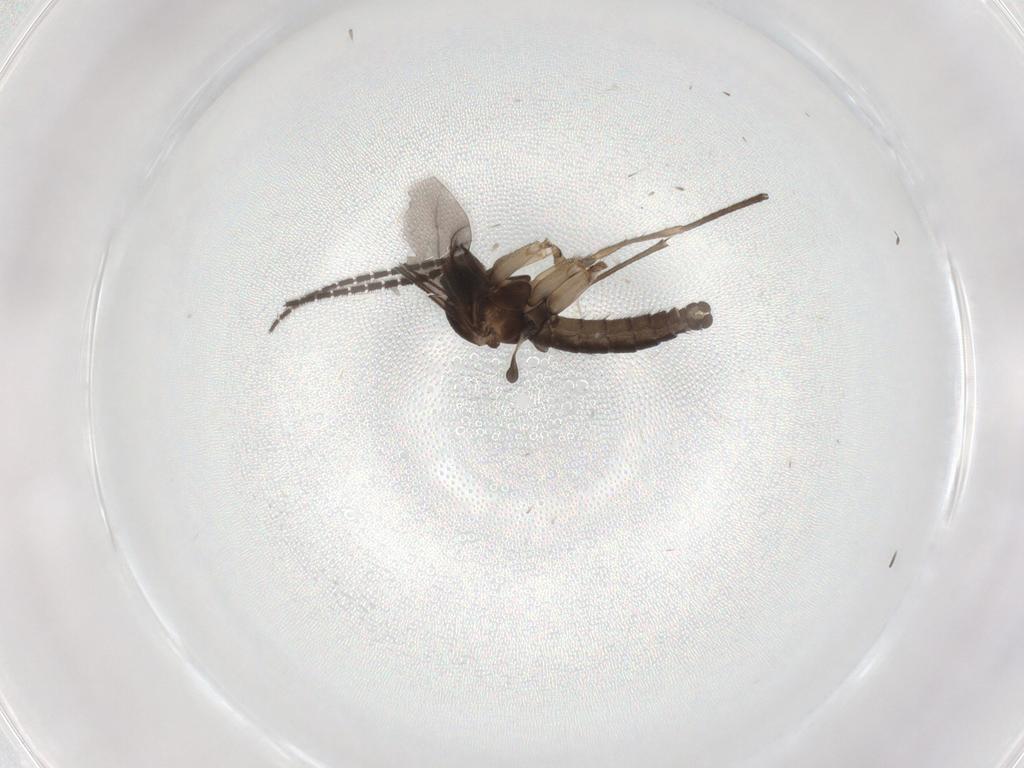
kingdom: Animalia
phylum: Arthropoda
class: Insecta
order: Diptera
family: Sciaridae
